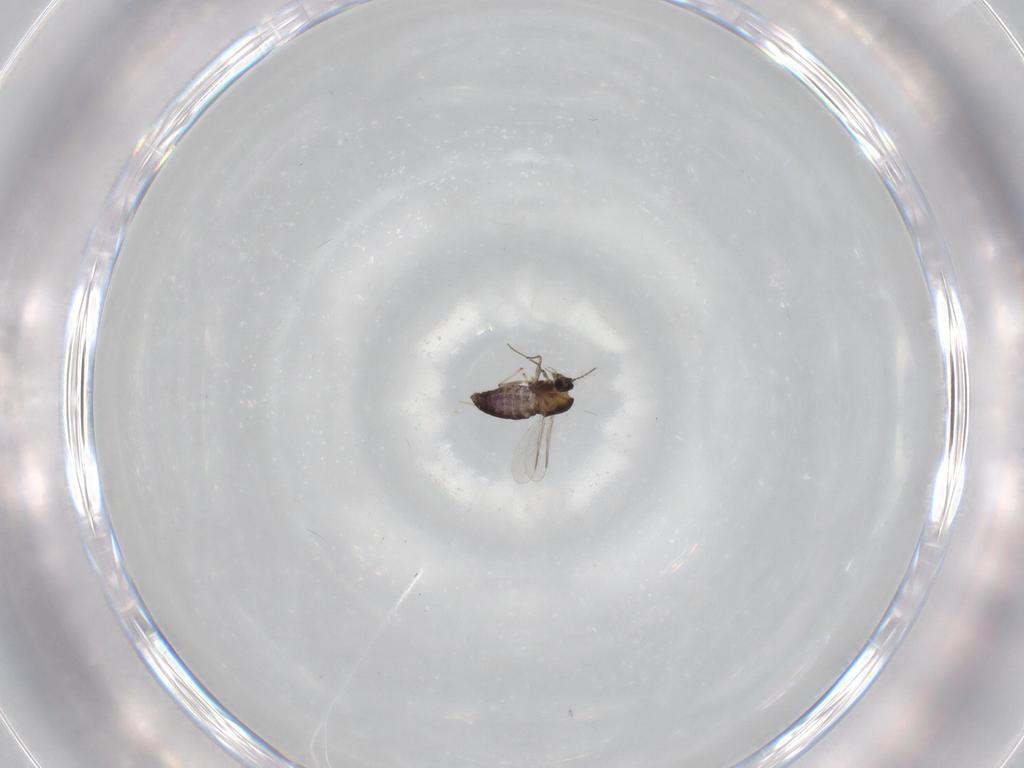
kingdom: Animalia
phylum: Arthropoda
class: Insecta
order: Diptera
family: Chironomidae
